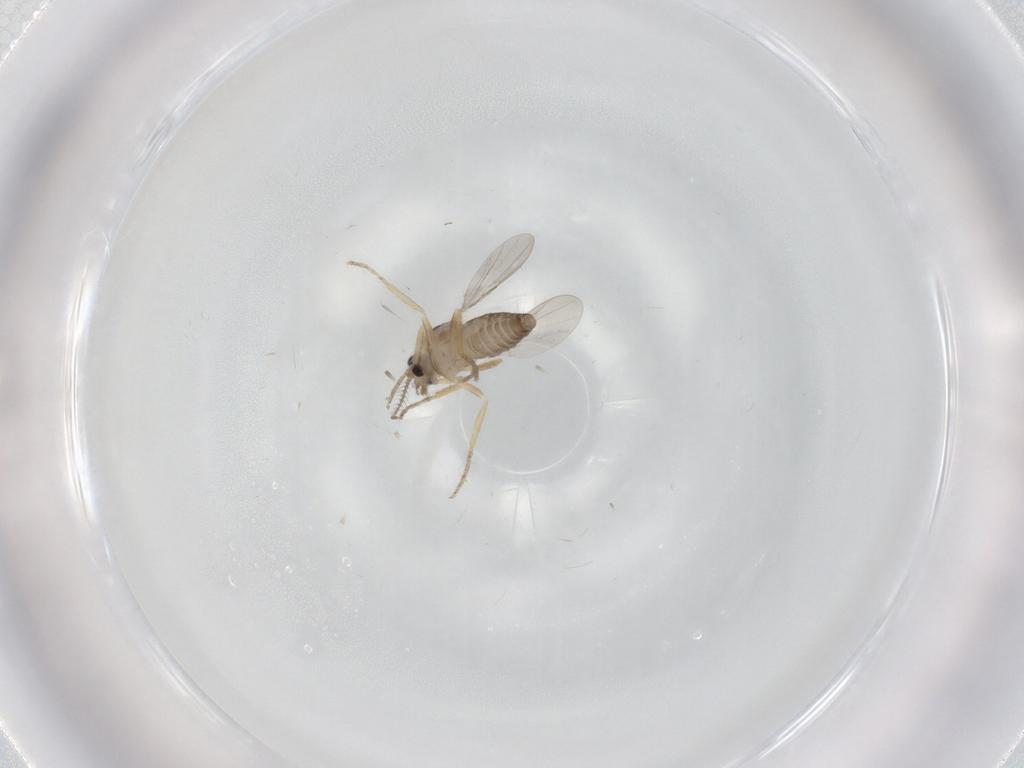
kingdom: Animalia
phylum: Arthropoda
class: Insecta
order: Diptera
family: Ceratopogonidae
